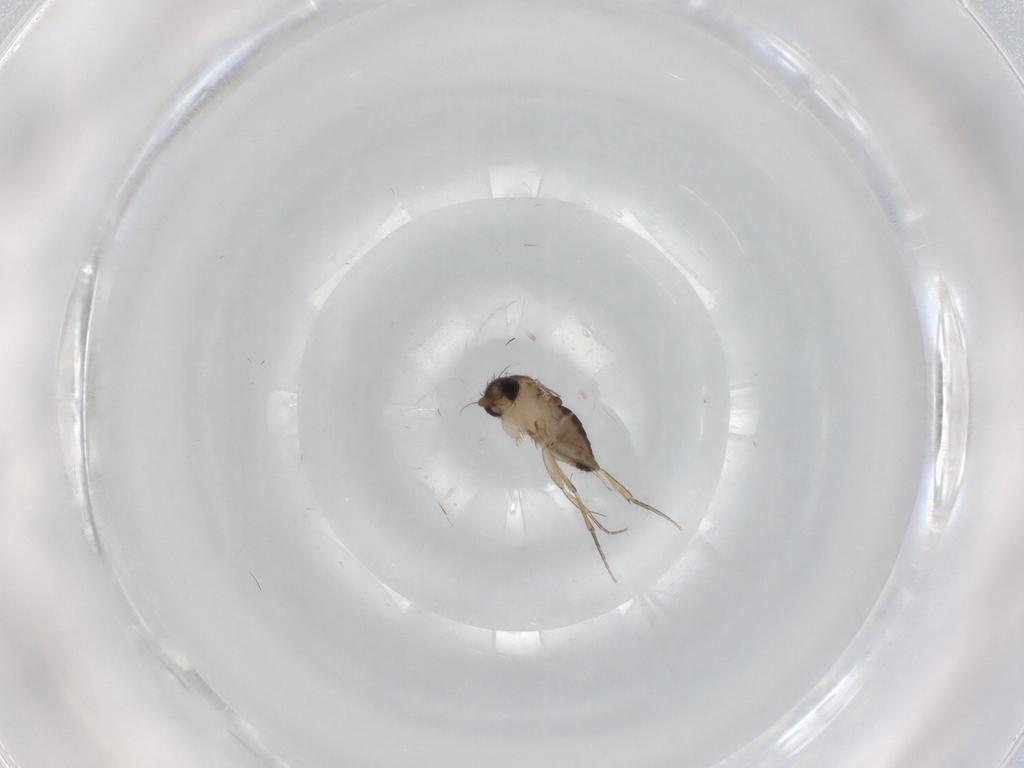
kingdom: Animalia
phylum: Arthropoda
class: Insecta
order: Diptera
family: Phoridae
